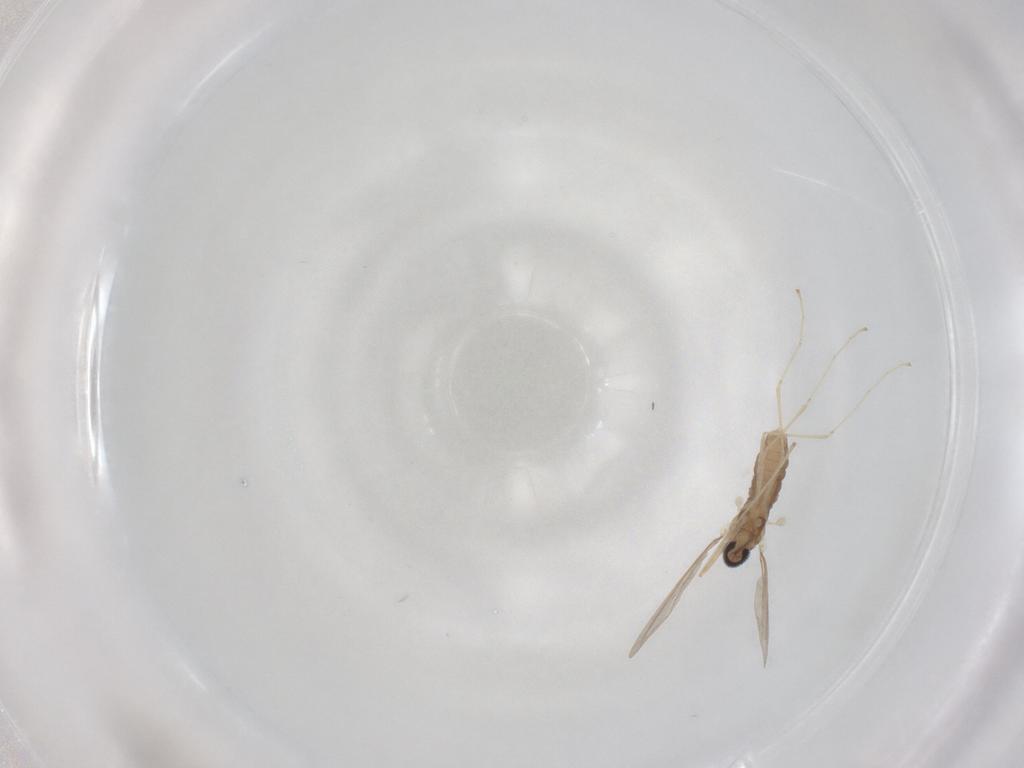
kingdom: Animalia
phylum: Arthropoda
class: Insecta
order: Diptera
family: Cecidomyiidae
